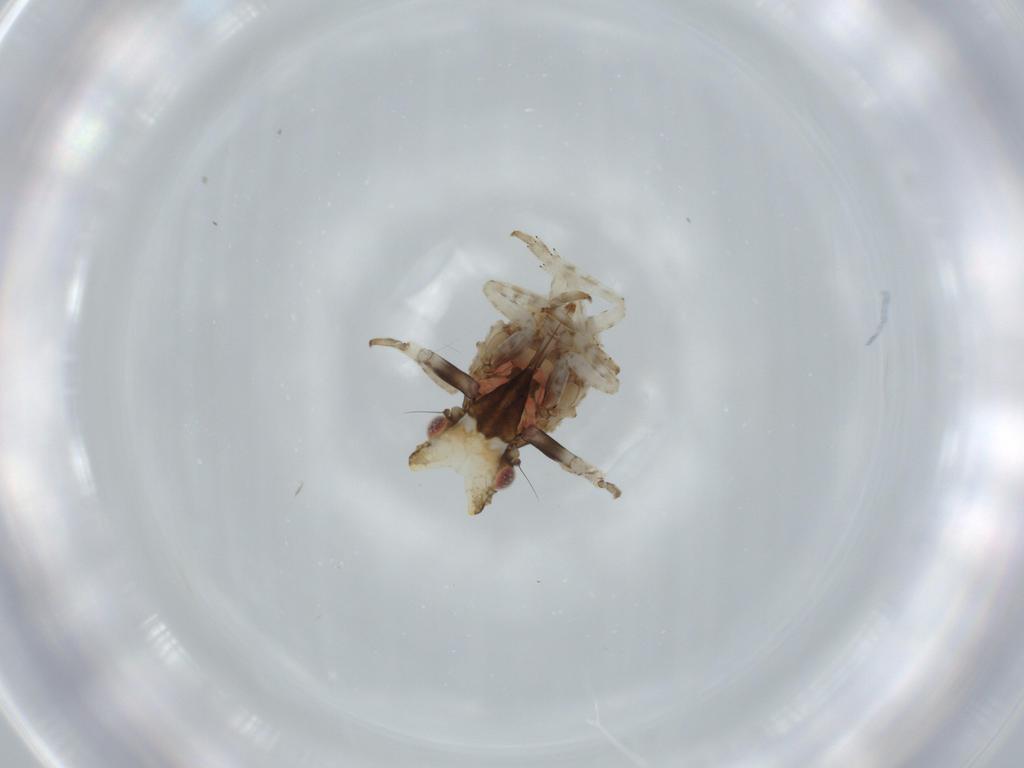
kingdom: Animalia
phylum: Arthropoda
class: Insecta
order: Hemiptera
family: Fulgoridae
